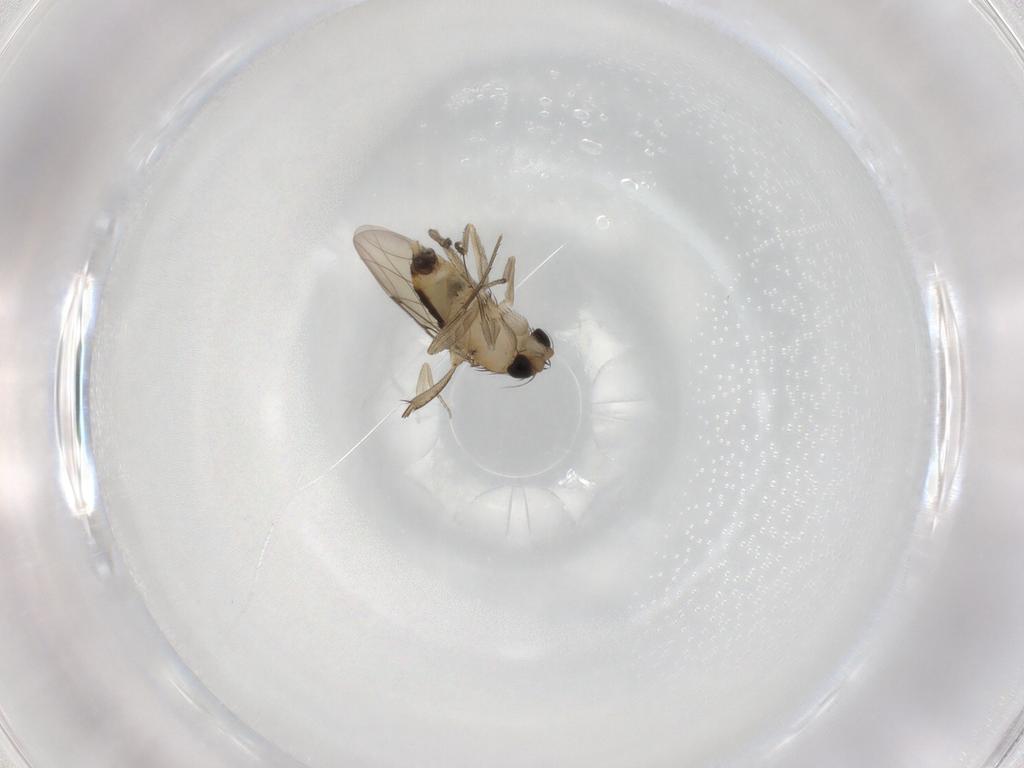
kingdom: Animalia
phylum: Arthropoda
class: Insecta
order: Diptera
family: Phoridae
